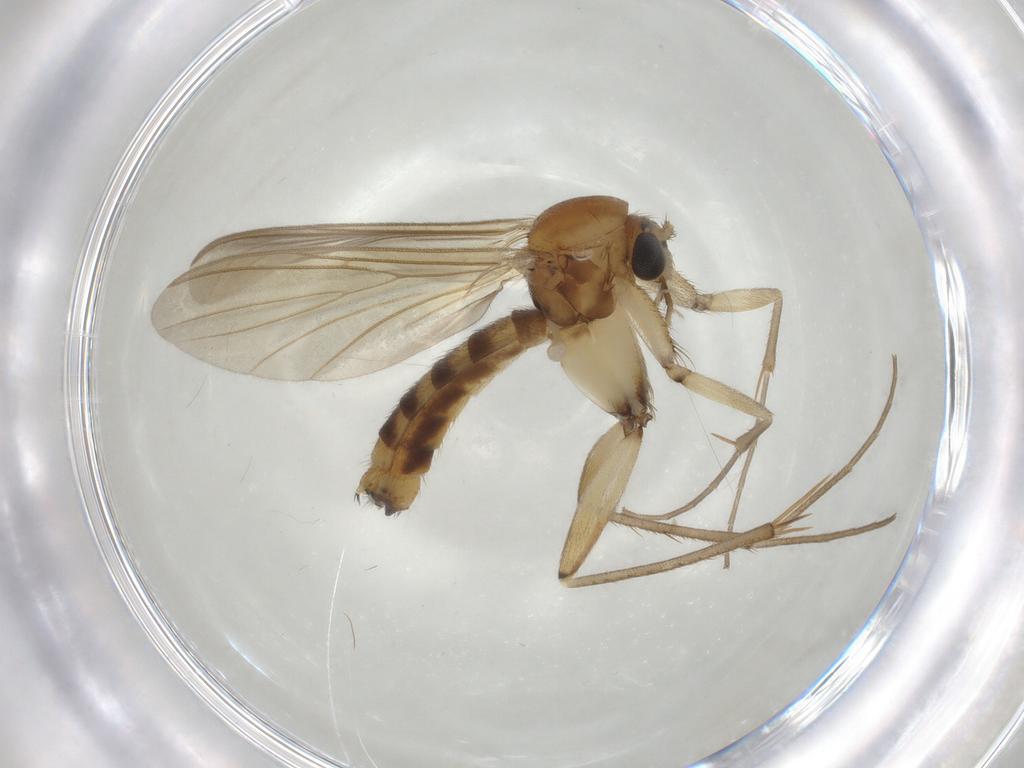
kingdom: Animalia
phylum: Arthropoda
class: Insecta
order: Diptera
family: Mycetophilidae
